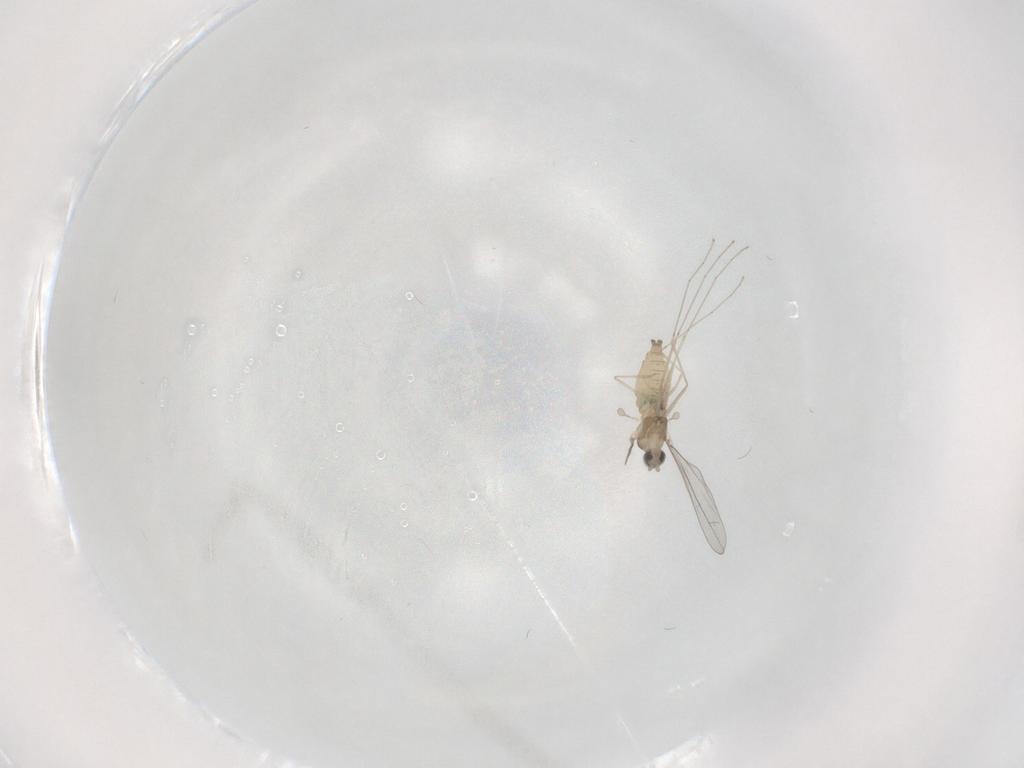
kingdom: Animalia
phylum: Arthropoda
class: Insecta
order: Diptera
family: Cecidomyiidae
